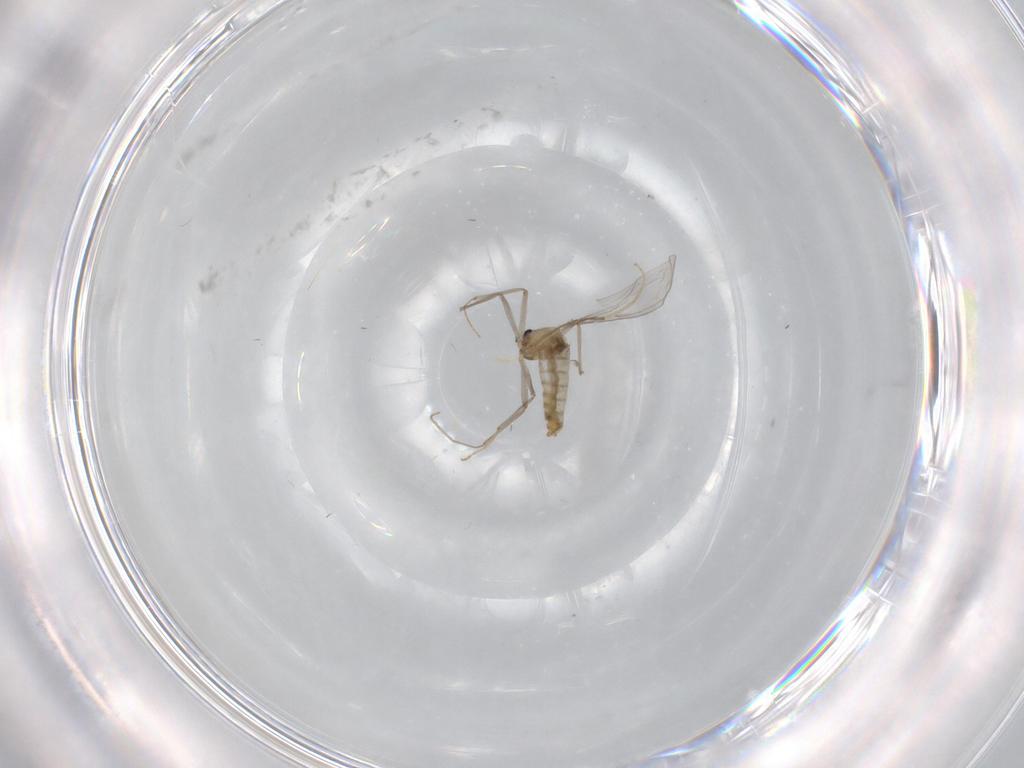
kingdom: Animalia
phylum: Arthropoda
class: Insecta
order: Diptera
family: Chironomidae
